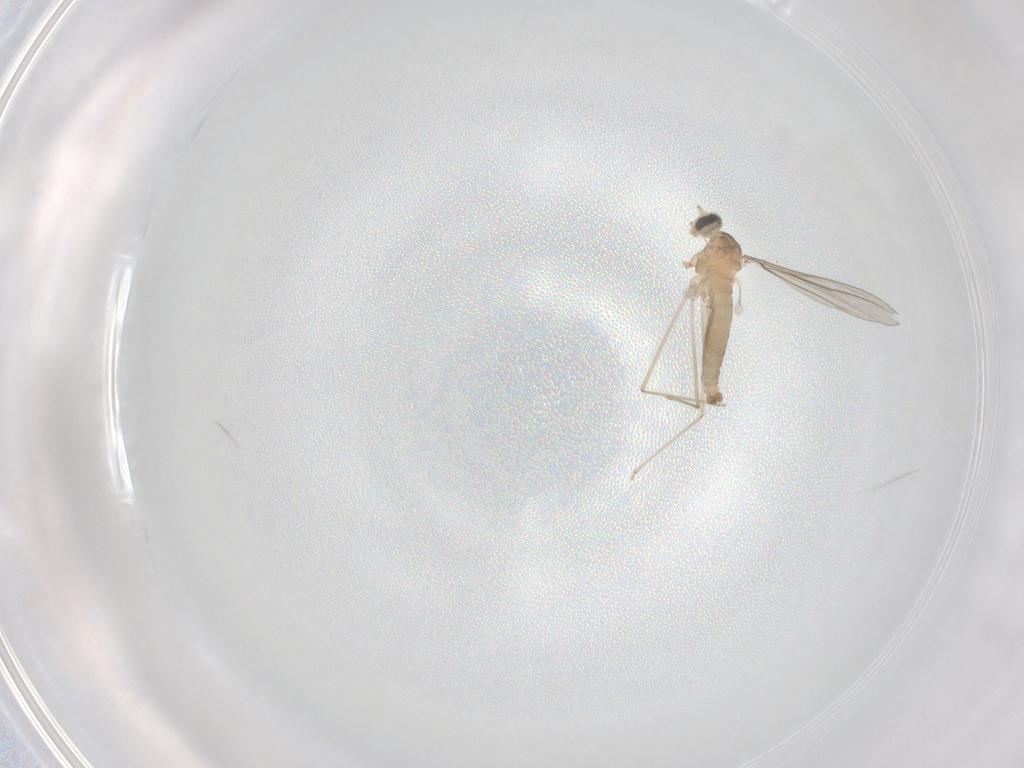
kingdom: Animalia
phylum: Arthropoda
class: Insecta
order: Diptera
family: Cecidomyiidae
